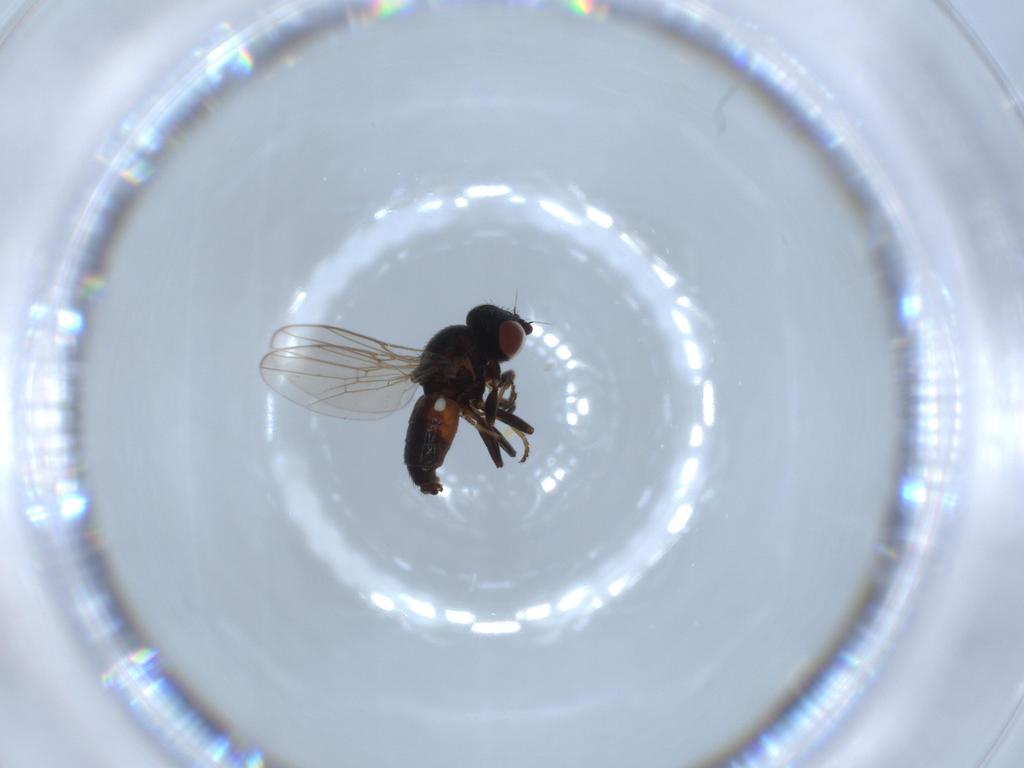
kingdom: Animalia
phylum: Arthropoda
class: Insecta
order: Diptera
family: Chloropidae
